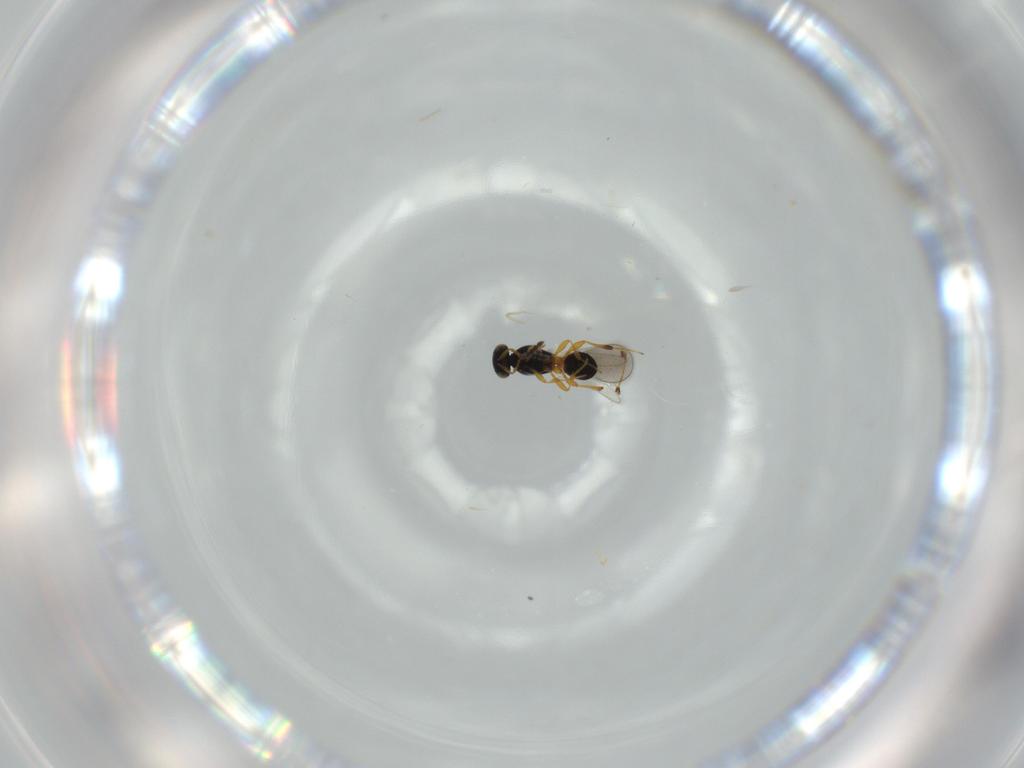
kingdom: Animalia
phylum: Arthropoda
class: Insecta
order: Hymenoptera
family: Platygastridae
